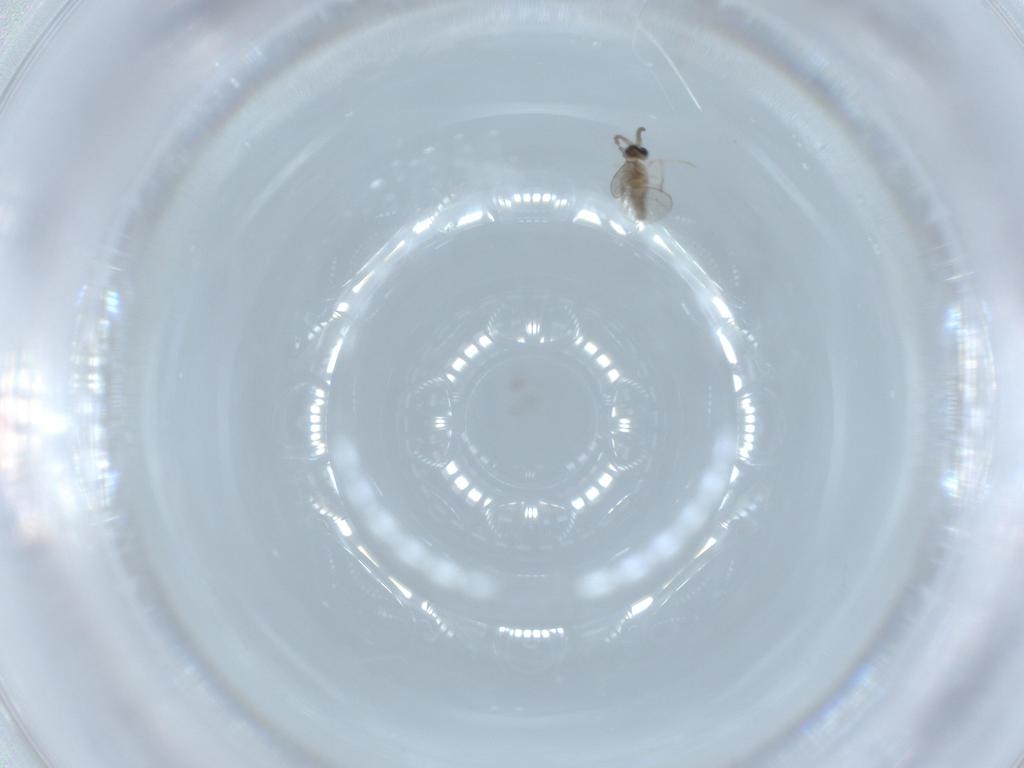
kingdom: Animalia
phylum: Arthropoda
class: Insecta
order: Diptera
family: Cecidomyiidae
